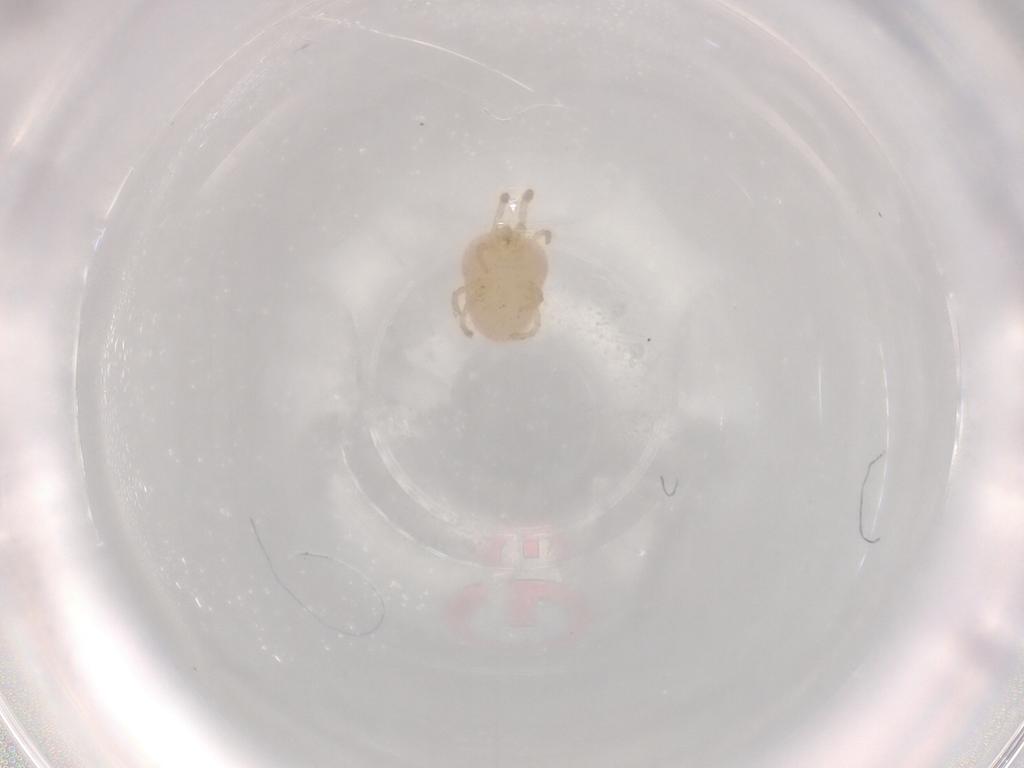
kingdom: Animalia
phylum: Arthropoda
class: Arachnida
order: Trombidiformes
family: Trombidiidae
